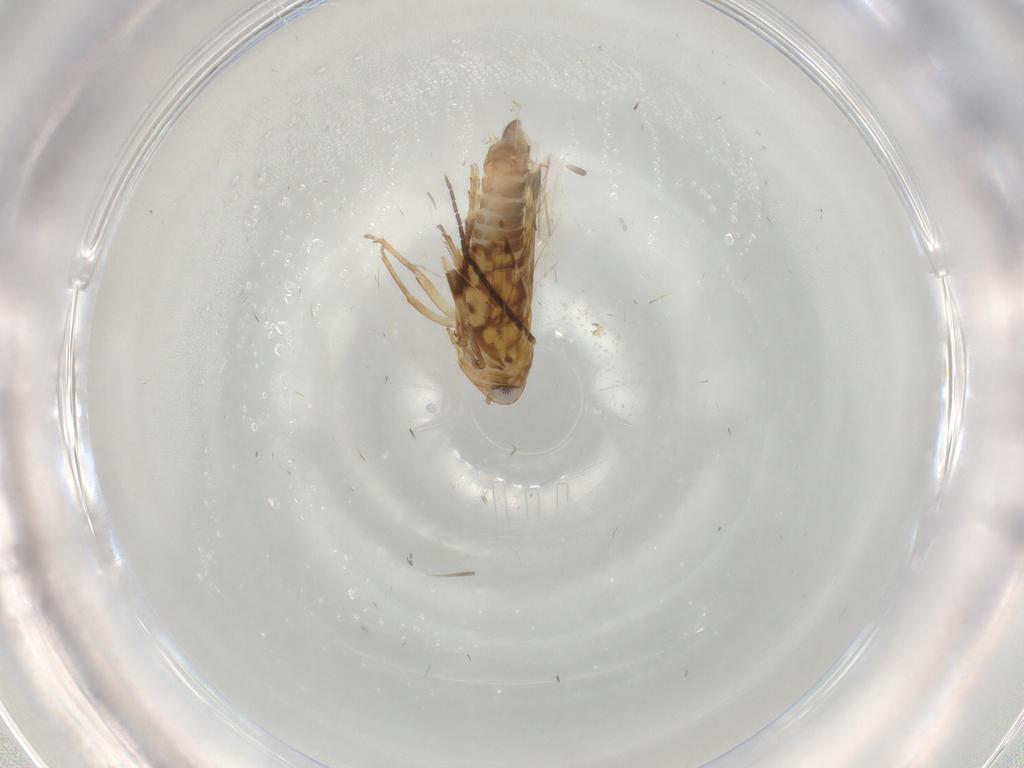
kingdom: Animalia
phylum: Arthropoda
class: Insecta
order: Hemiptera
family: Cicadellidae
